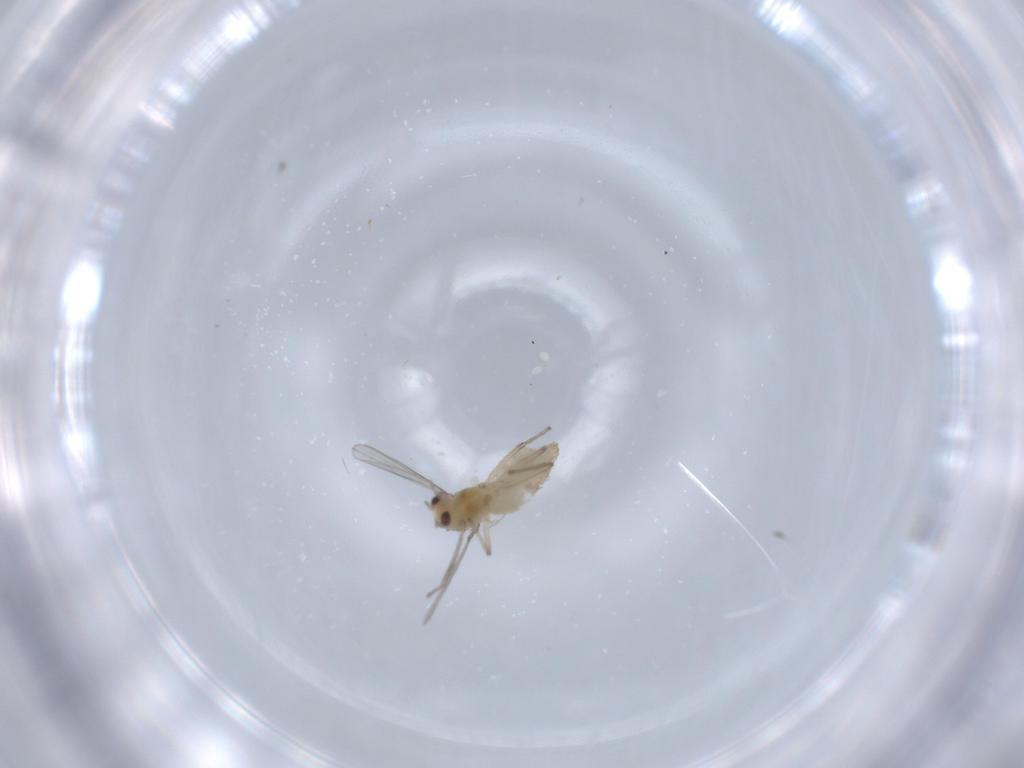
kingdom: Animalia
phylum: Arthropoda
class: Insecta
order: Diptera
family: Chironomidae
